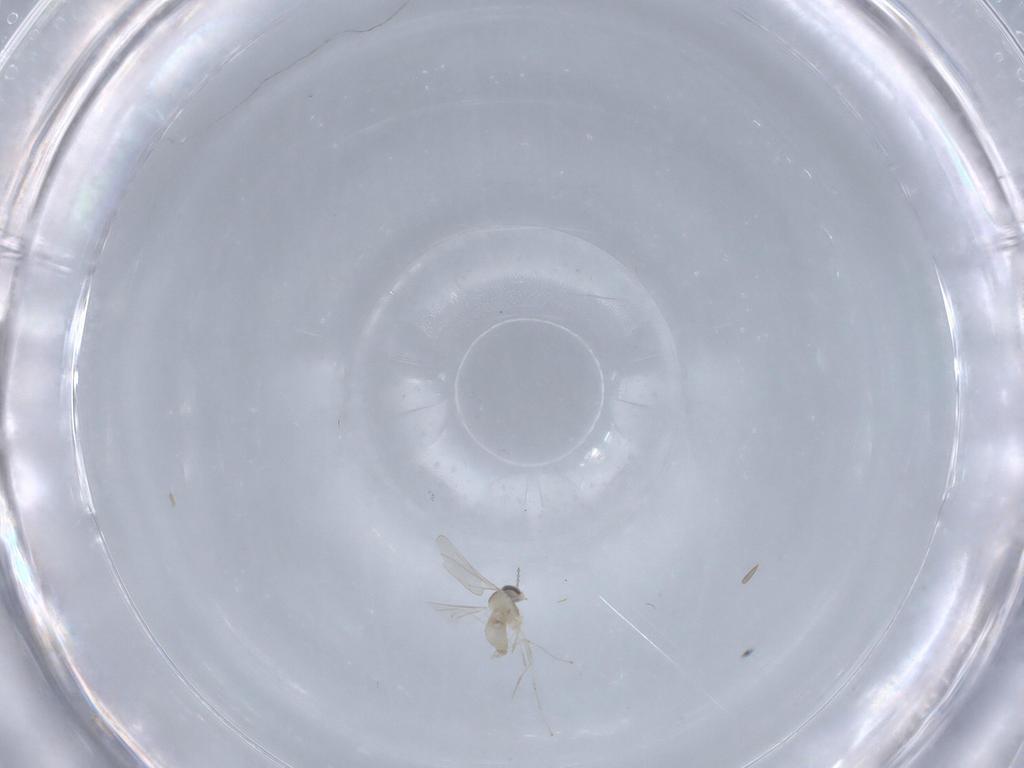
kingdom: Animalia
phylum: Arthropoda
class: Insecta
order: Diptera
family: Cecidomyiidae
